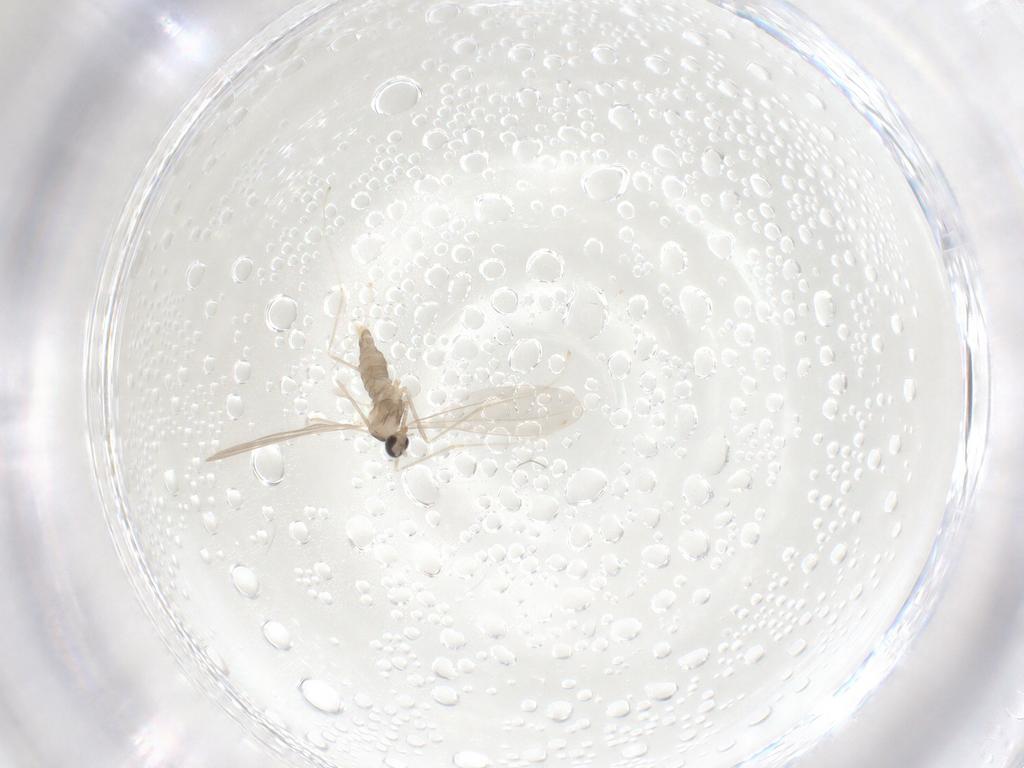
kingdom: Animalia
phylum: Arthropoda
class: Insecta
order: Diptera
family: Cecidomyiidae
